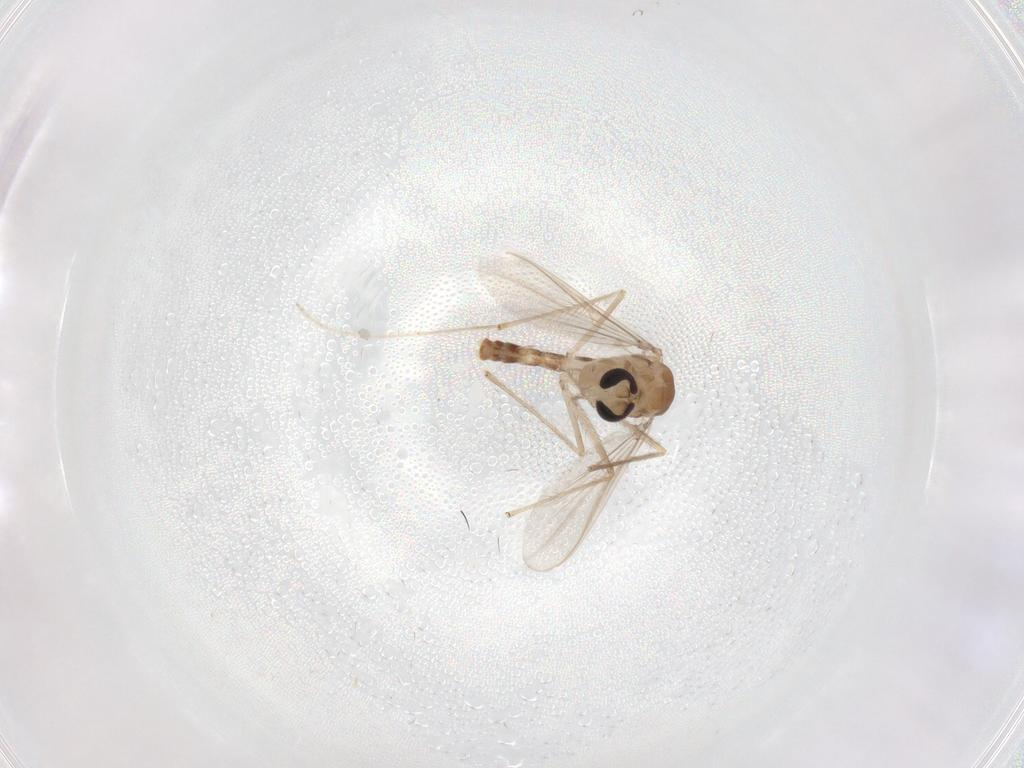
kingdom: Animalia
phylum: Arthropoda
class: Insecta
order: Diptera
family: Chironomidae
